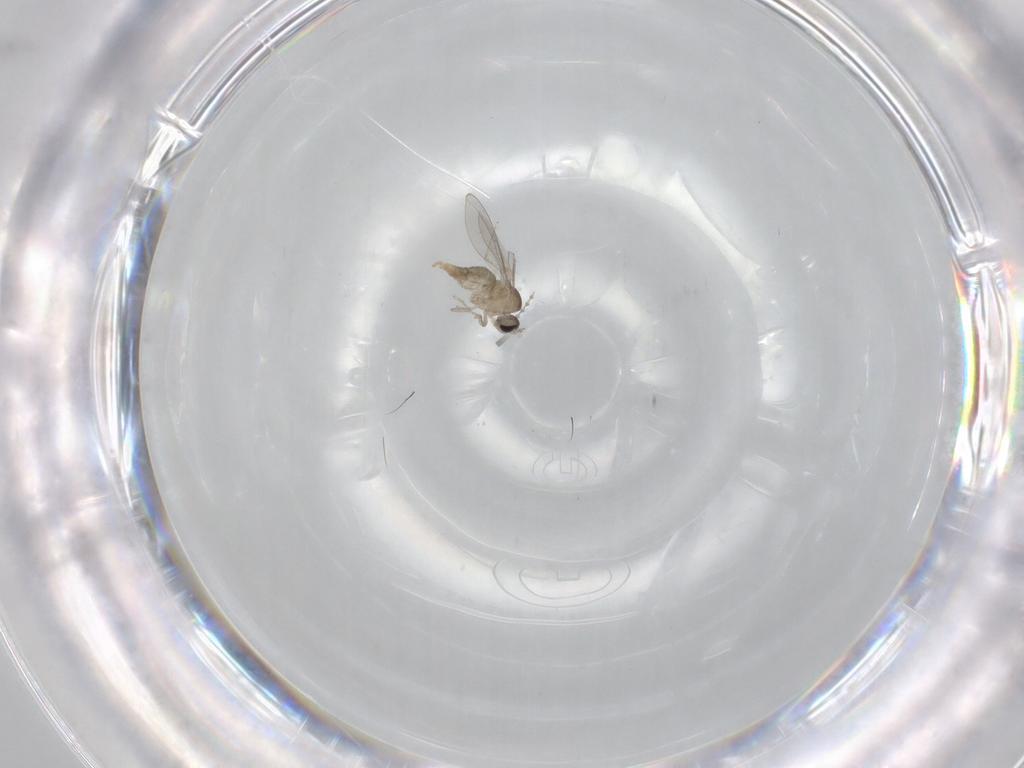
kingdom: Animalia
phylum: Arthropoda
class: Insecta
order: Diptera
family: Cecidomyiidae
